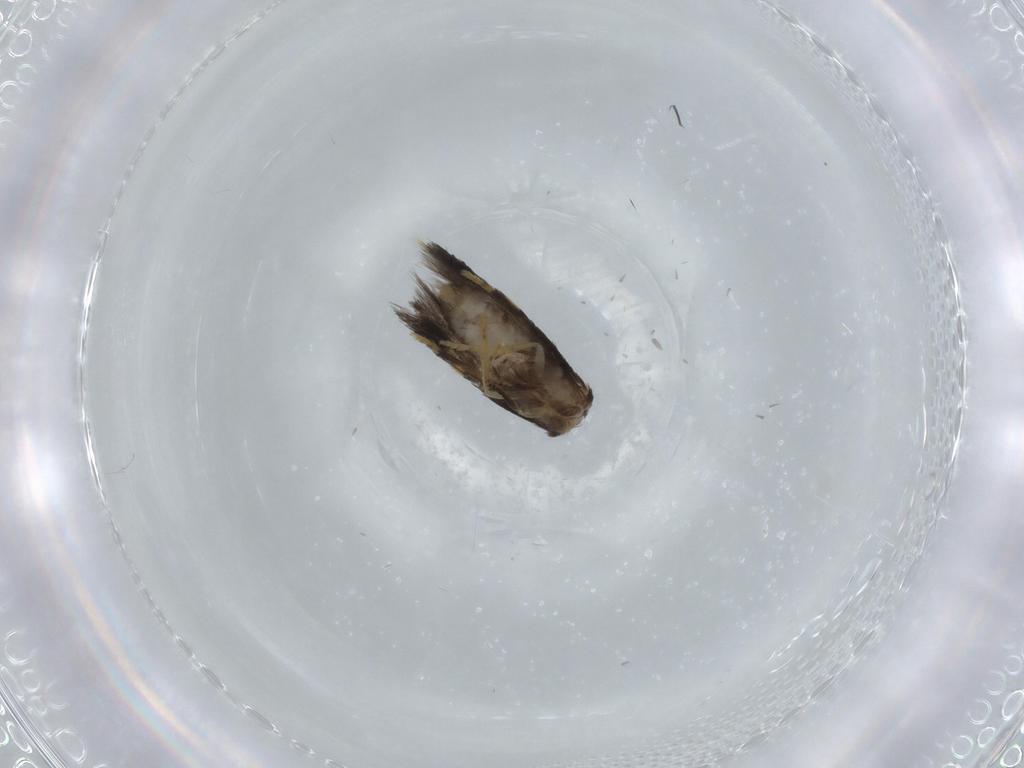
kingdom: Animalia
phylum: Arthropoda
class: Insecta
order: Lepidoptera
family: Nepticulidae
